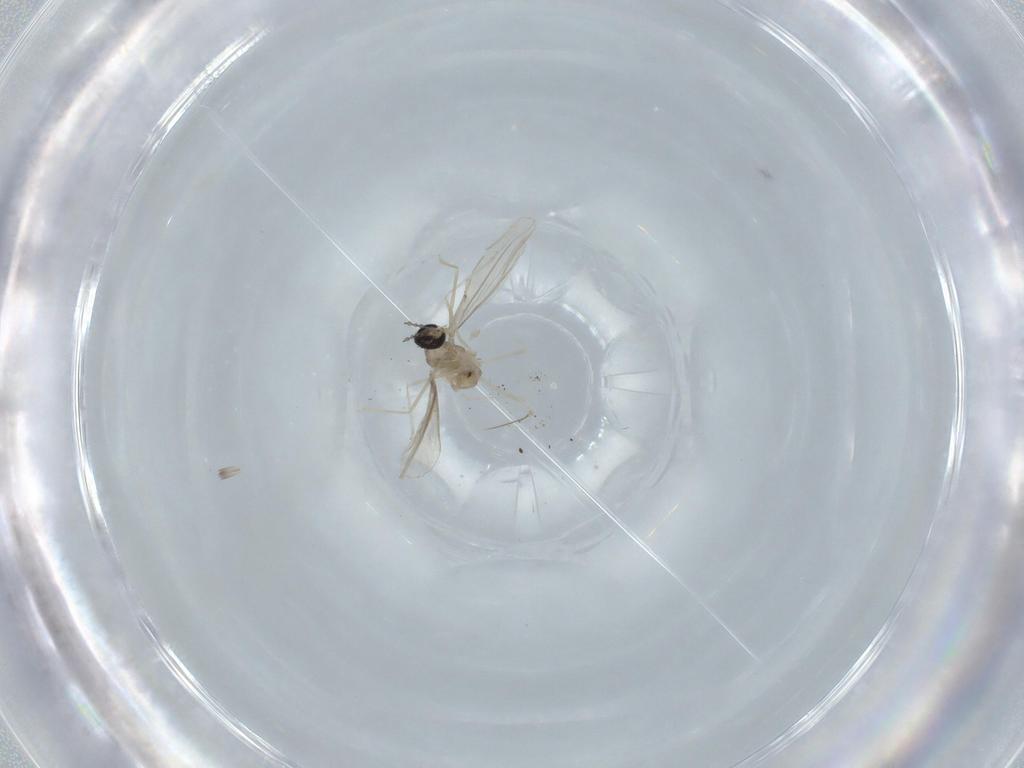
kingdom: Animalia
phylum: Arthropoda
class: Insecta
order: Diptera
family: Cecidomyiidae
